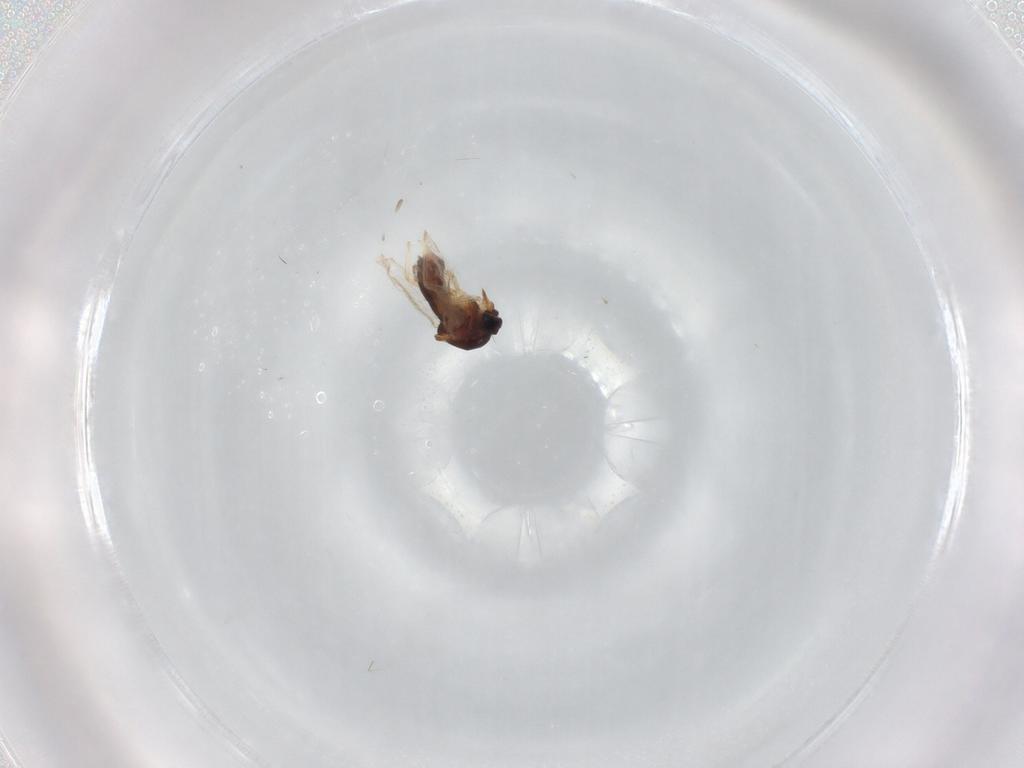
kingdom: Animalia
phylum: Arthropoda
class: Insecta
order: Diptera
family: Ceratopogonidae
